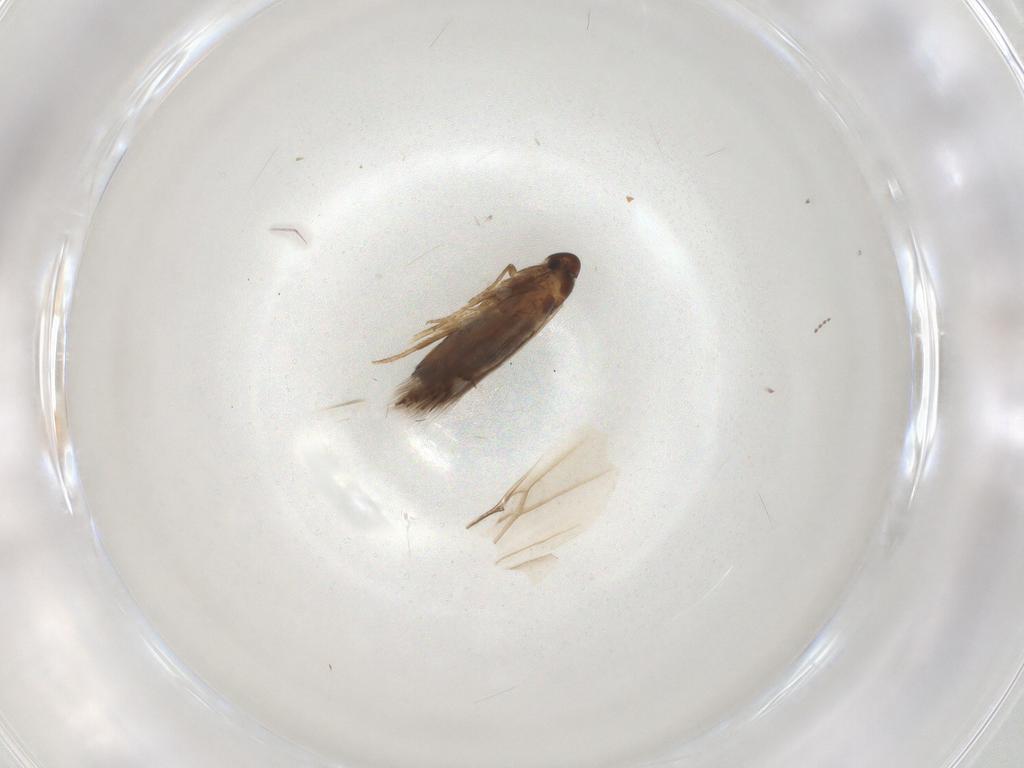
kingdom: Animalia
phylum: Arthropoda
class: Insecta
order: Lepidoptera
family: Heliozelidae
